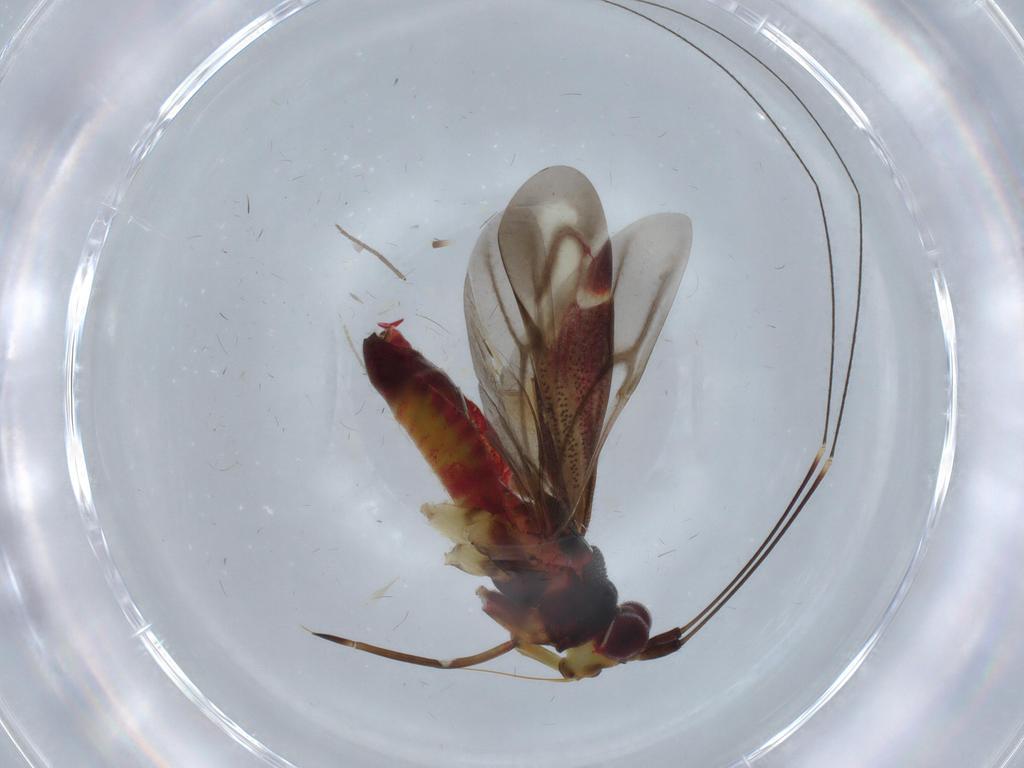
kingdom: Animalia
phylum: Arthropoda
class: Insecta
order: Hemiptera
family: Miridae
